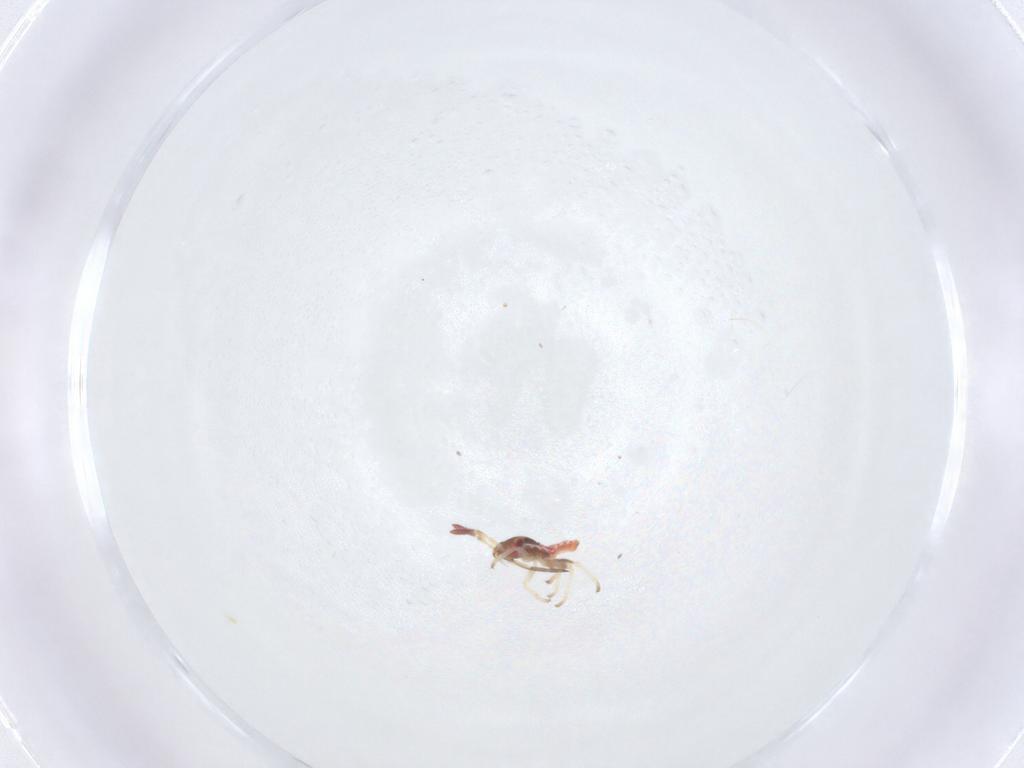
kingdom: Animalia
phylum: Arthropoda
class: Insecta
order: Hemiptera
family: Lygaeidae
